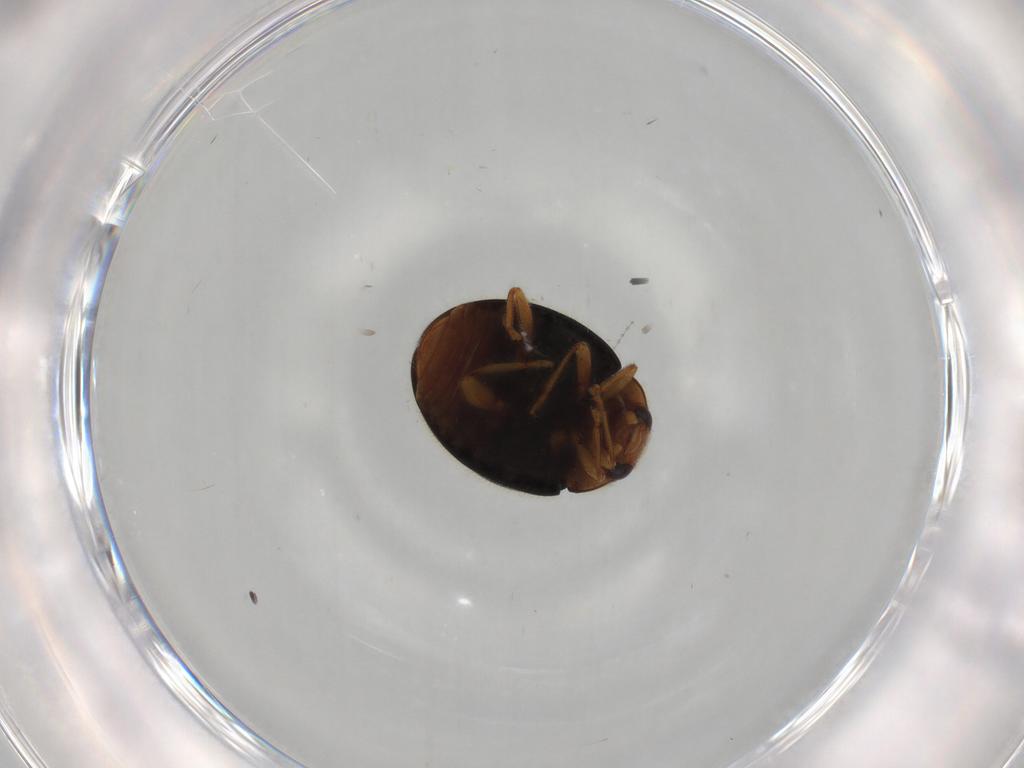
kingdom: Animalia
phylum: Arthropoda
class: Insecta
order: Coleoptera
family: Coccinellidae
